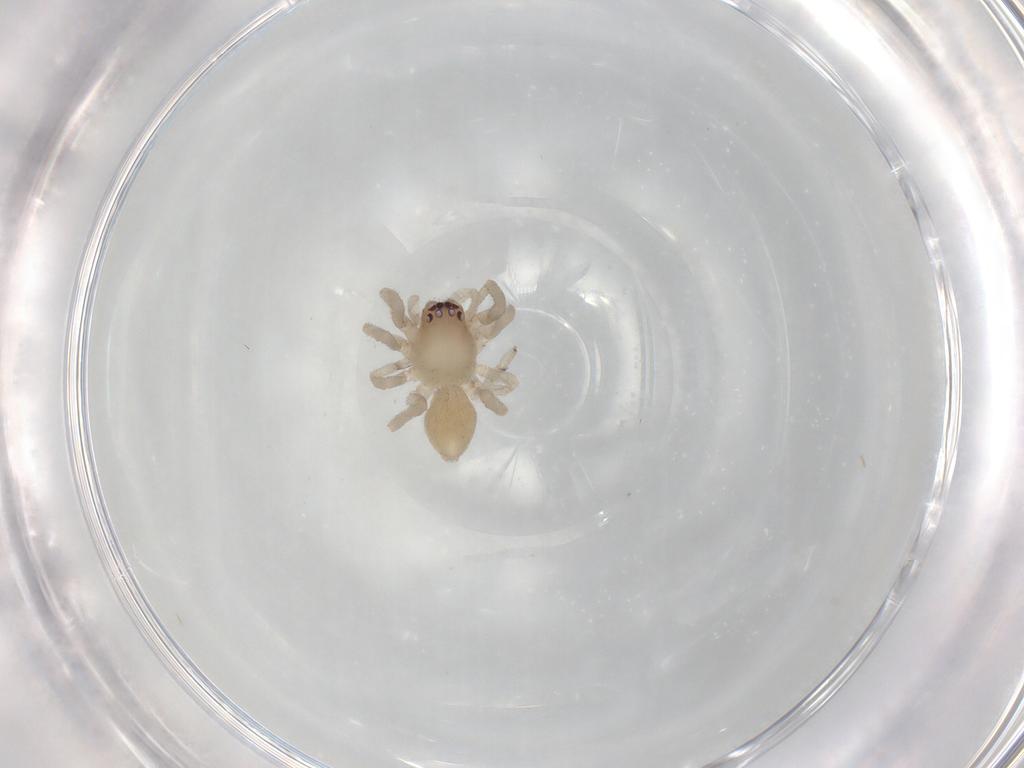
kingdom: Animalia
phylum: Arthropoda
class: Arachnida
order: Araneae
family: Trachelidae
